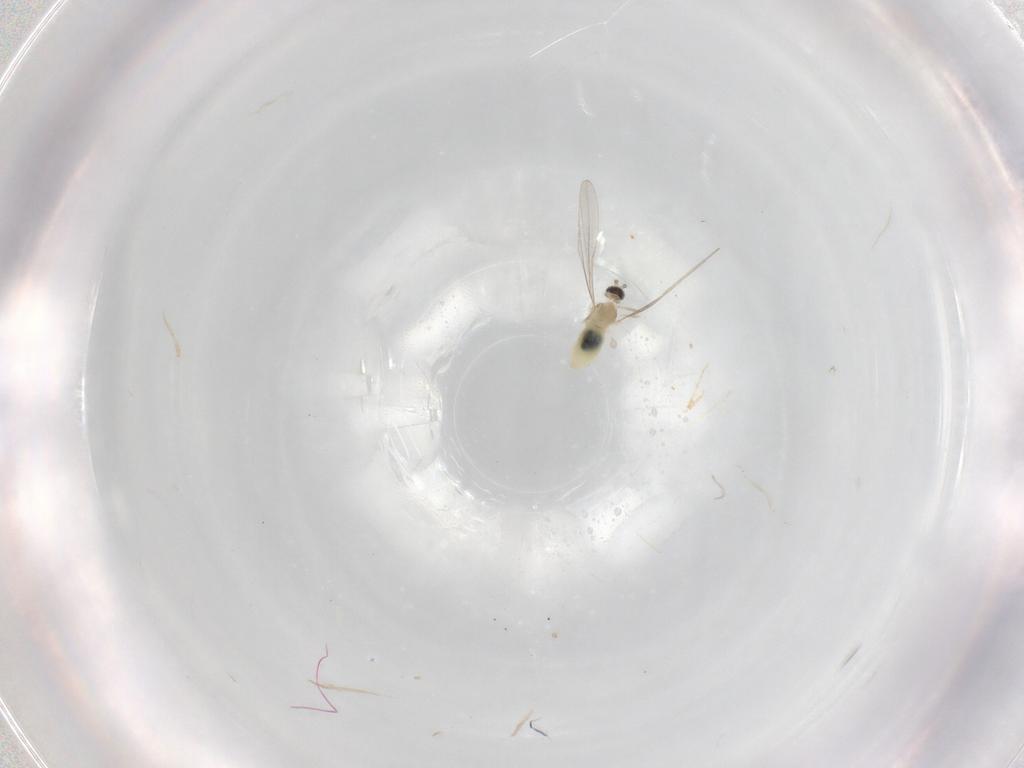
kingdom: Animalia
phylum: Arthropoda
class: Insecta
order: Diptera
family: Cecidomyiidae
